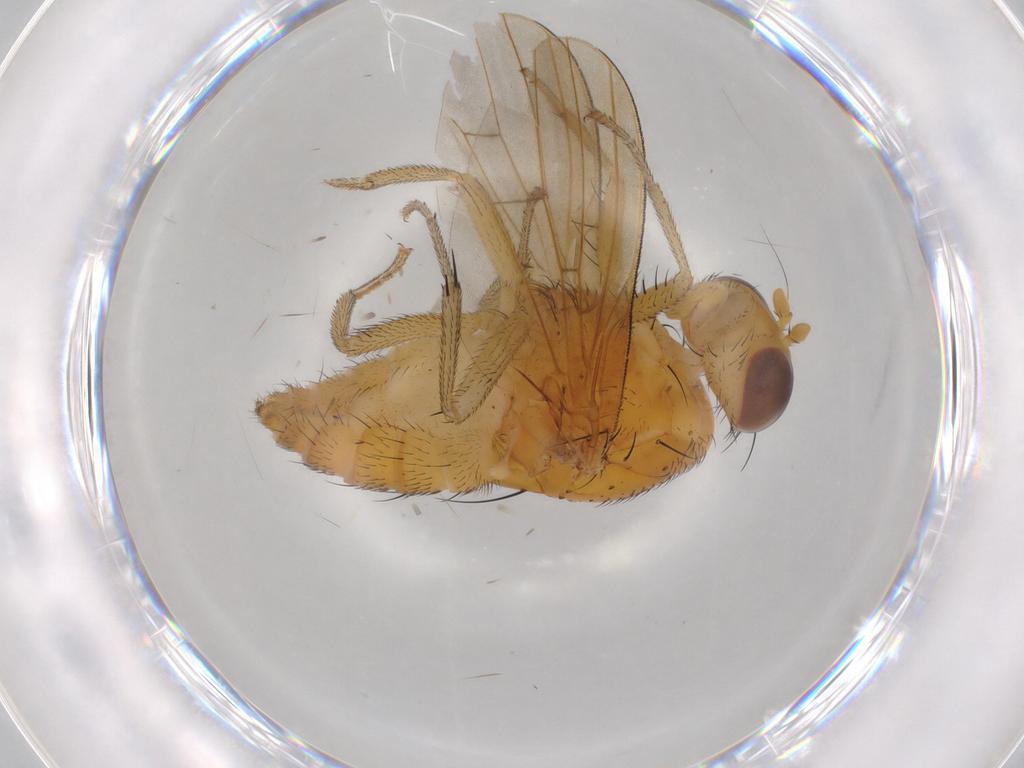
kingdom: Animalia
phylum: Arthropoda
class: Insecta
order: Diptera
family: Sciaridae
